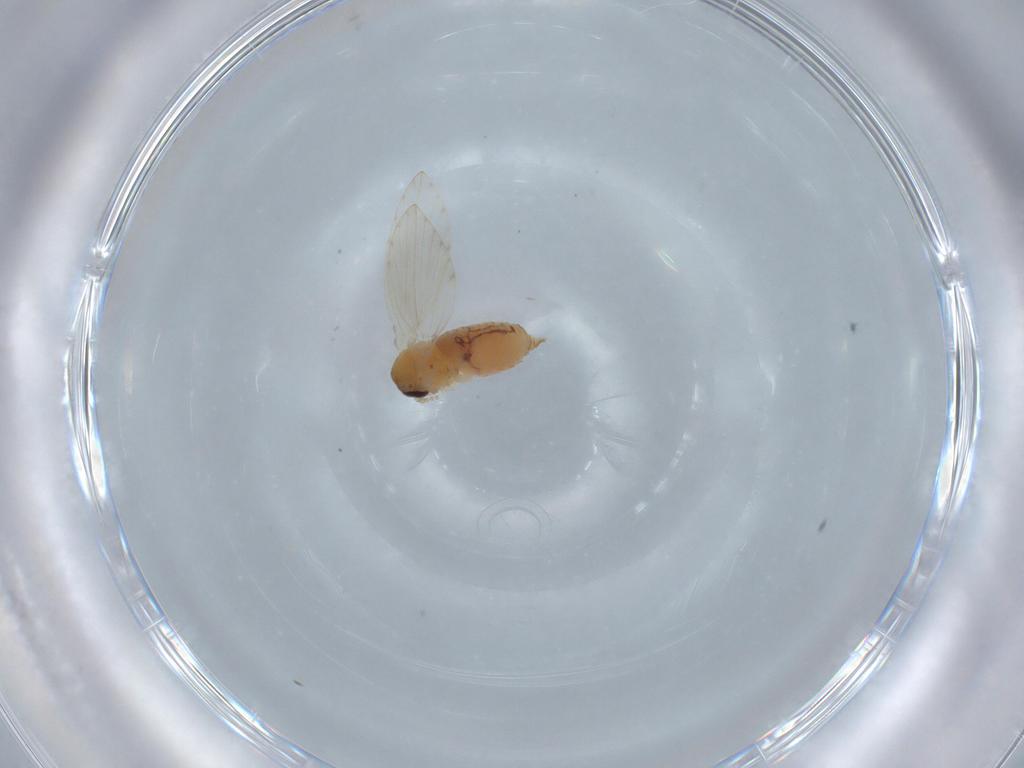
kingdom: Animalia
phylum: Arthropoda
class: Insecta
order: Diptera
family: Psychodidae
